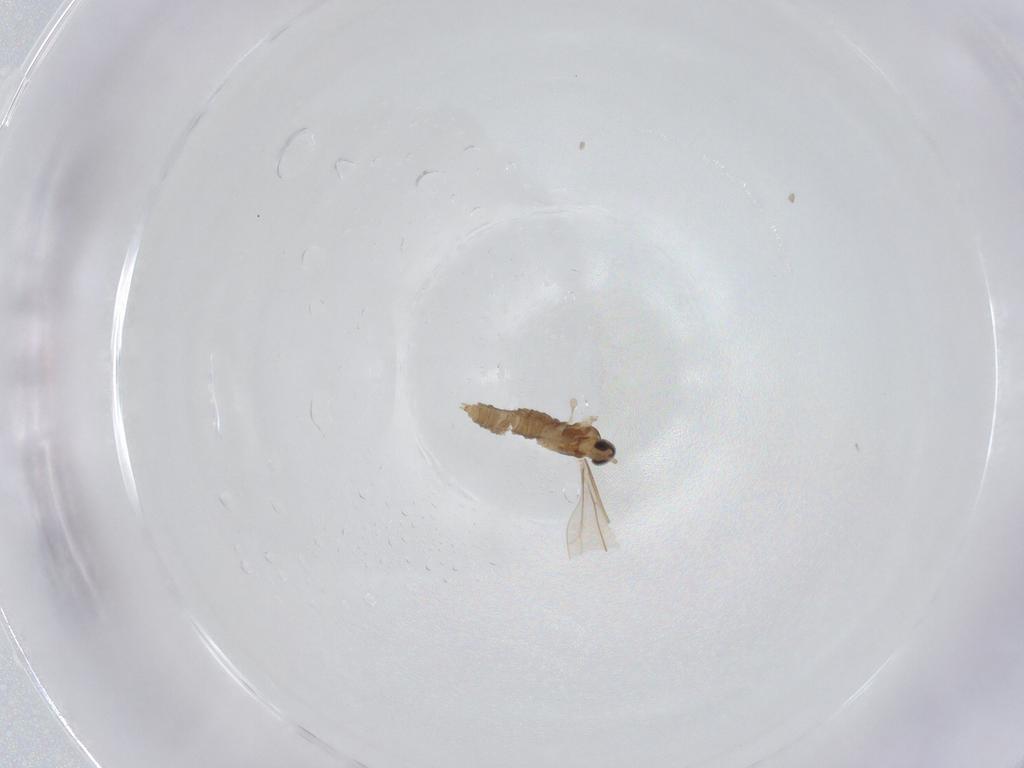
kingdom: Animalia
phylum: Arthropoda
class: Insecta
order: Diptera
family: Cecidomyiidae
